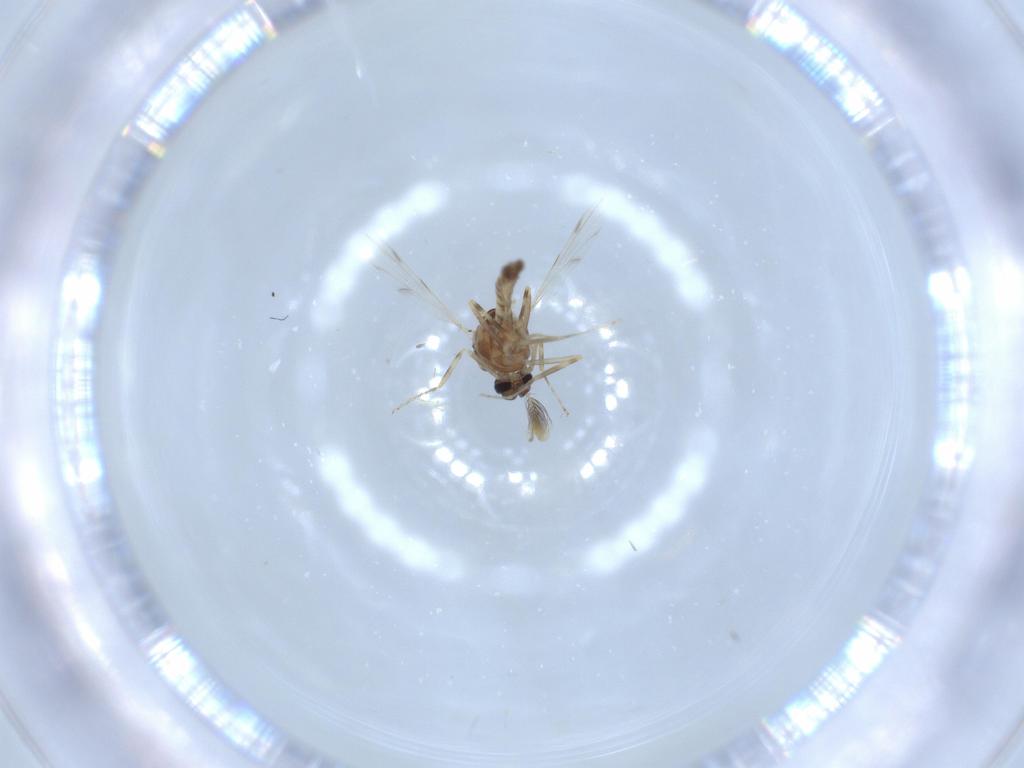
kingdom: Animalia
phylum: Arthropoda
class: Insecta
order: Diptera
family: Ceratopogonidae
